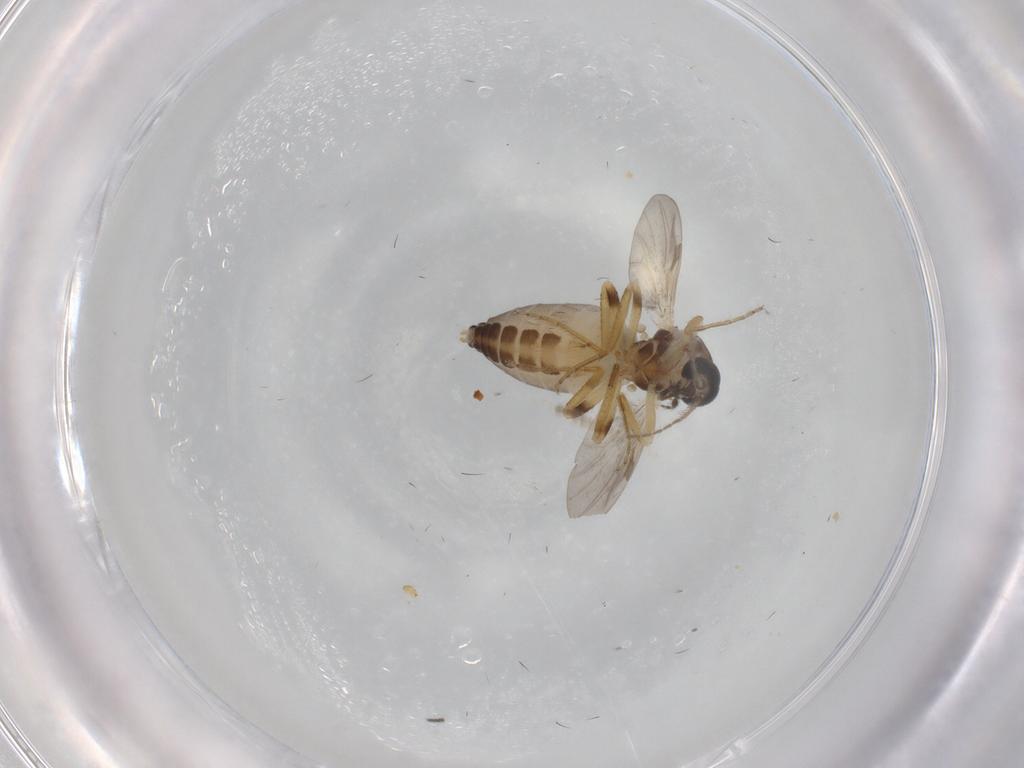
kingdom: Animalia
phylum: Arthropoda
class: Insecta
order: Diptera
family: Ceratopogonidae
